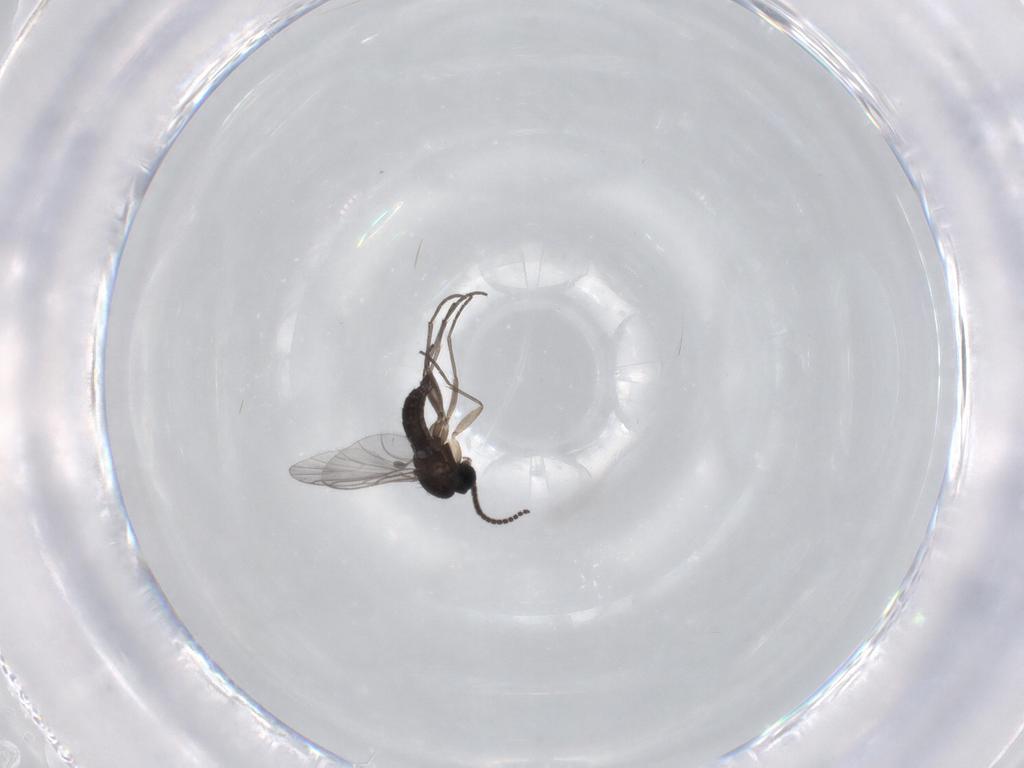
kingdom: Animalia
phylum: Arthropoda
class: Insecta
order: Diptera
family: Sciaridae
